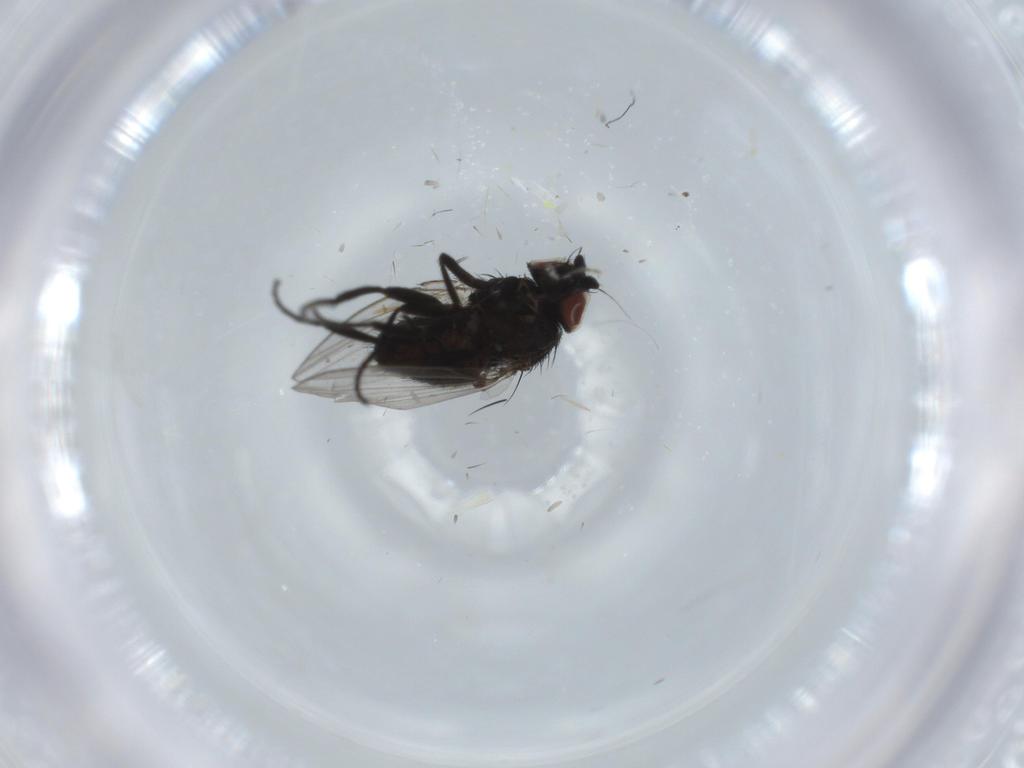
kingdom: Animalia
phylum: Arthropoda
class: Insecta
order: Diptera
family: Milichiidae
